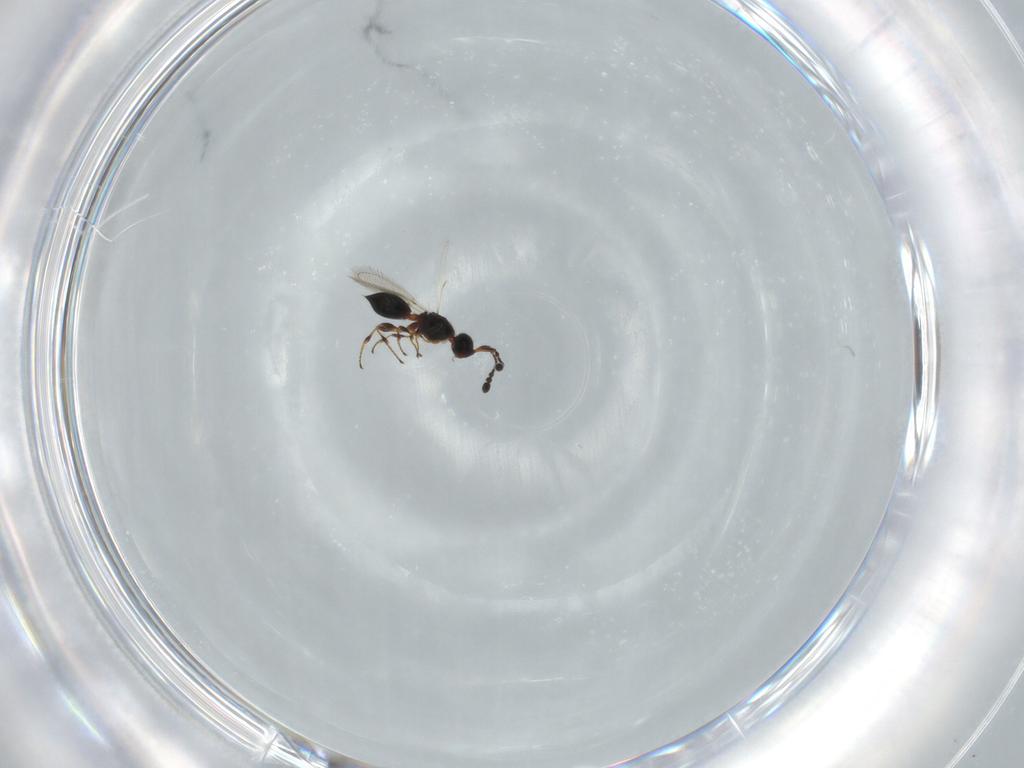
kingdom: Animalia
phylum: Arthropoda
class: Insecta
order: Hymenoptera
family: Diapriidae
